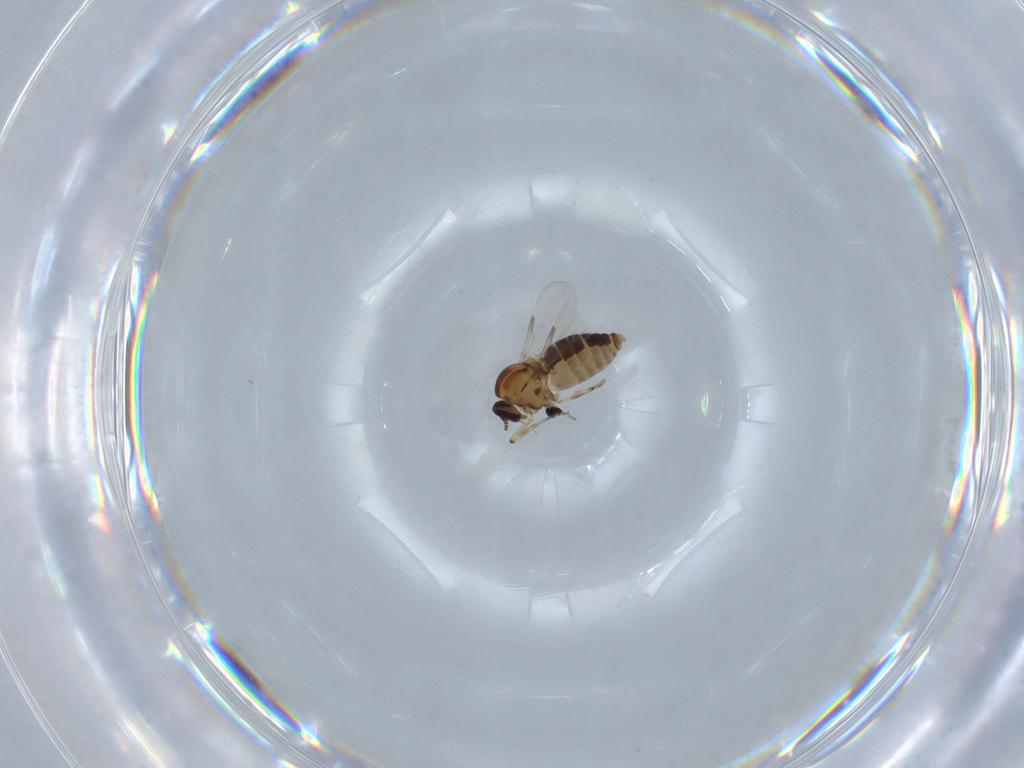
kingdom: Animalia
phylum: Arthropoda
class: Insecta
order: Diptera
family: Ceratopogonidae
